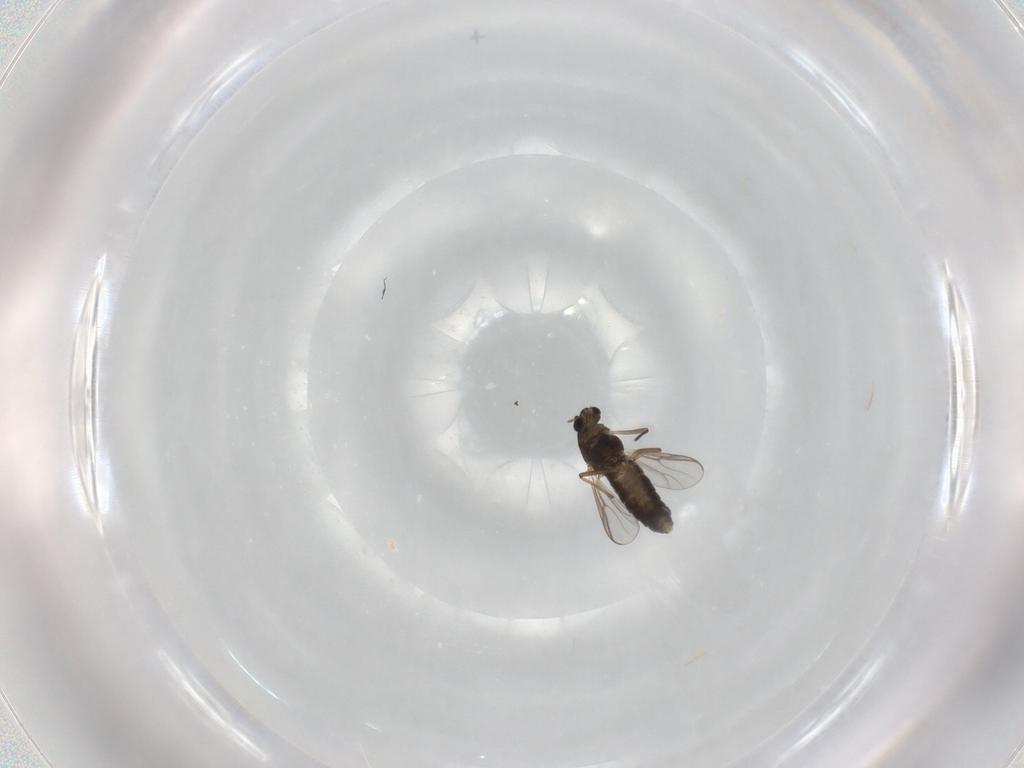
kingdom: Animalia
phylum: Arthropoda
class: Insecta
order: Diptera
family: Chironomidae
